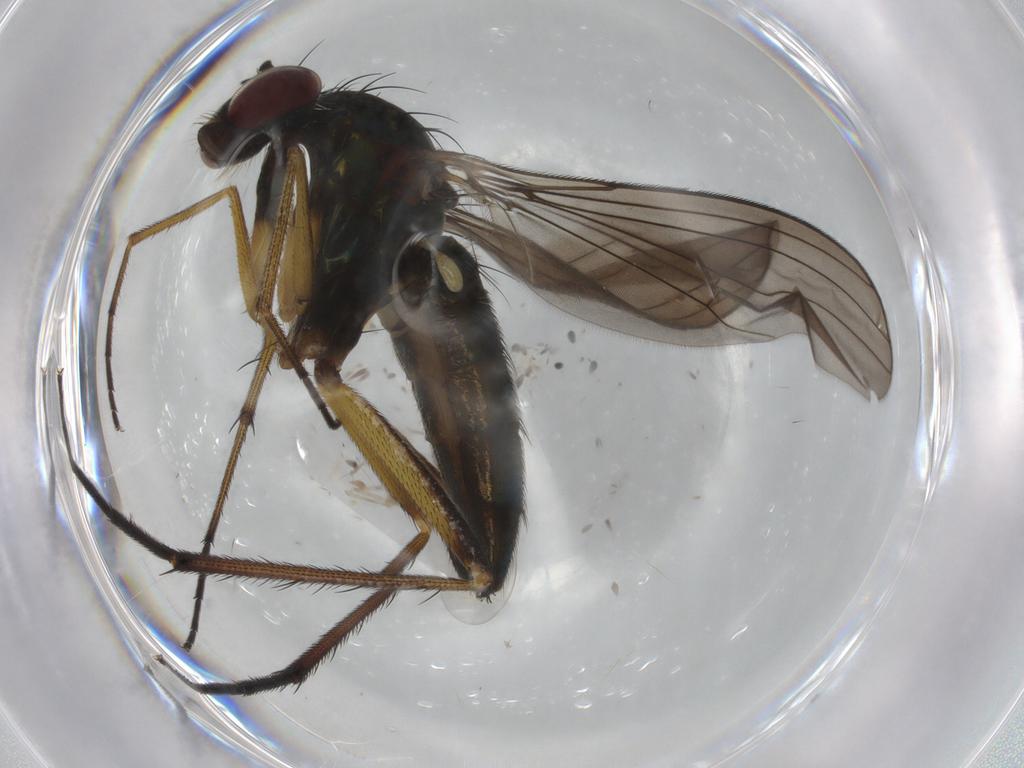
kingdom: Animalia
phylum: Arthropoda
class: Insecta
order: Diptera
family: Cecidomyiidae
